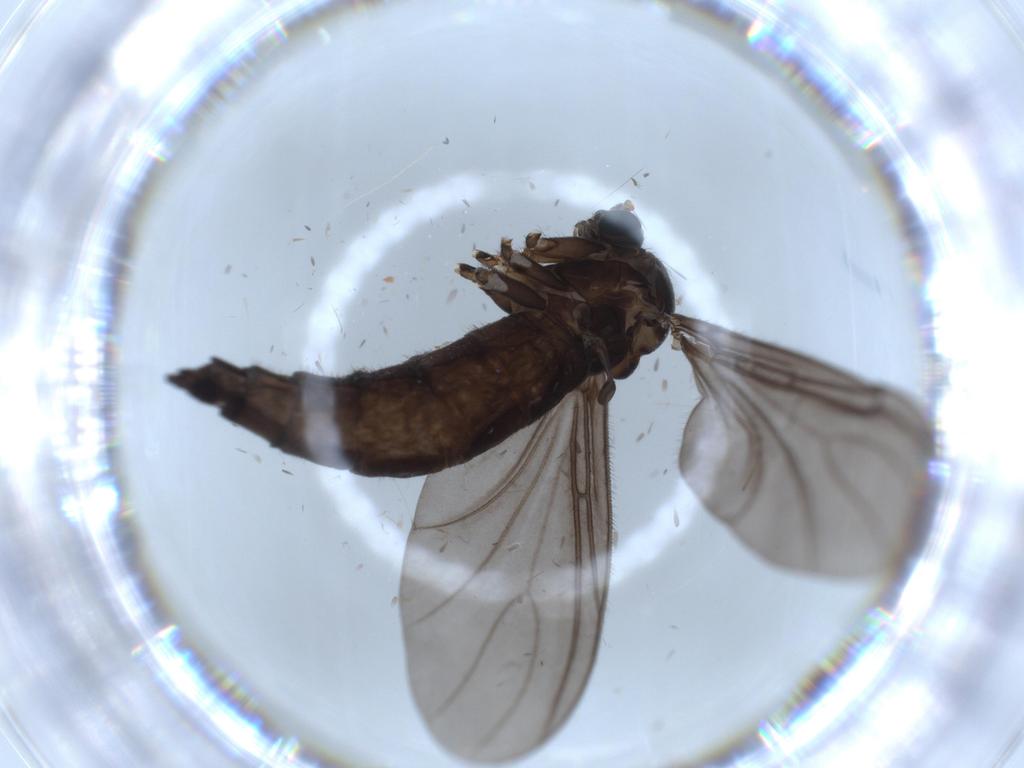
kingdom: Animalia
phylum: Arthropoda
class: Insecta
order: Diptera
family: Sciaridae
